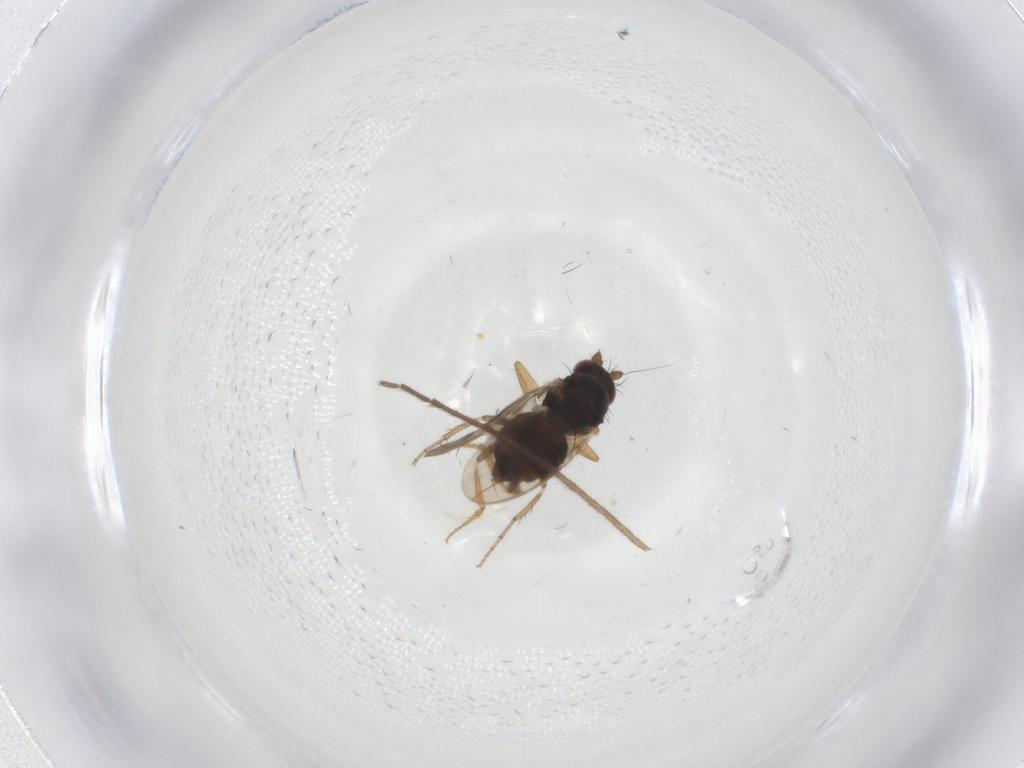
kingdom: Animalia
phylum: Arthropoda
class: Insecta
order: Diptera
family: Sphaeroceridae
